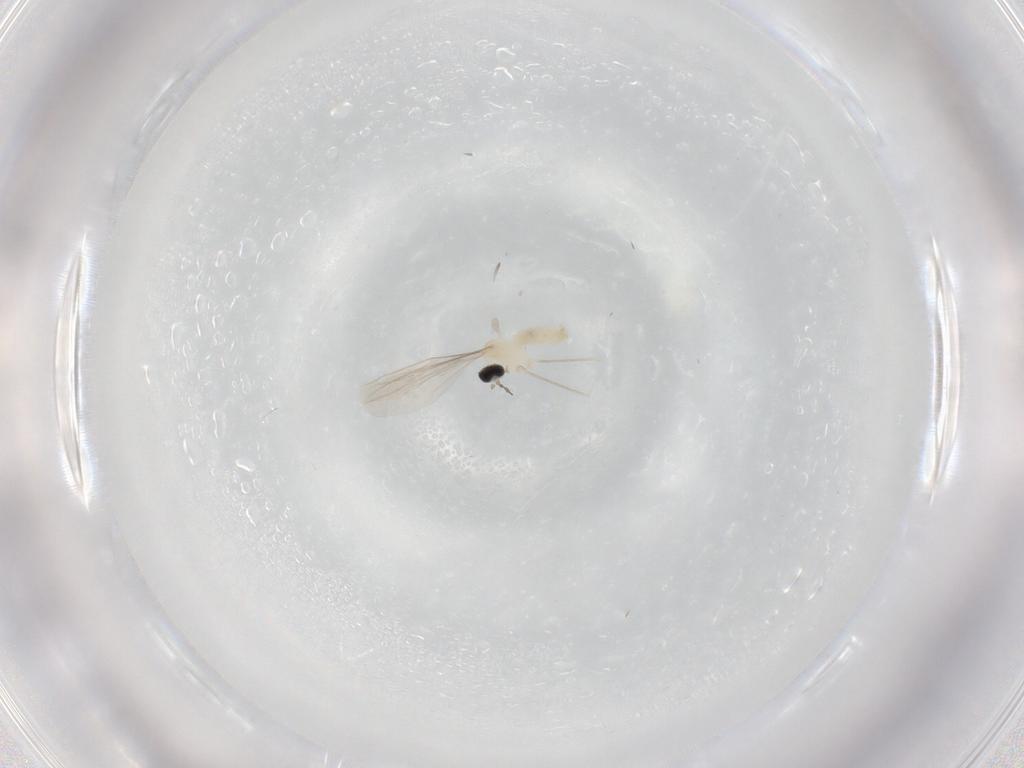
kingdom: Animalia
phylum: Arthropoda
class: Insecta
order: Diptera
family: Cecidomyiidae
